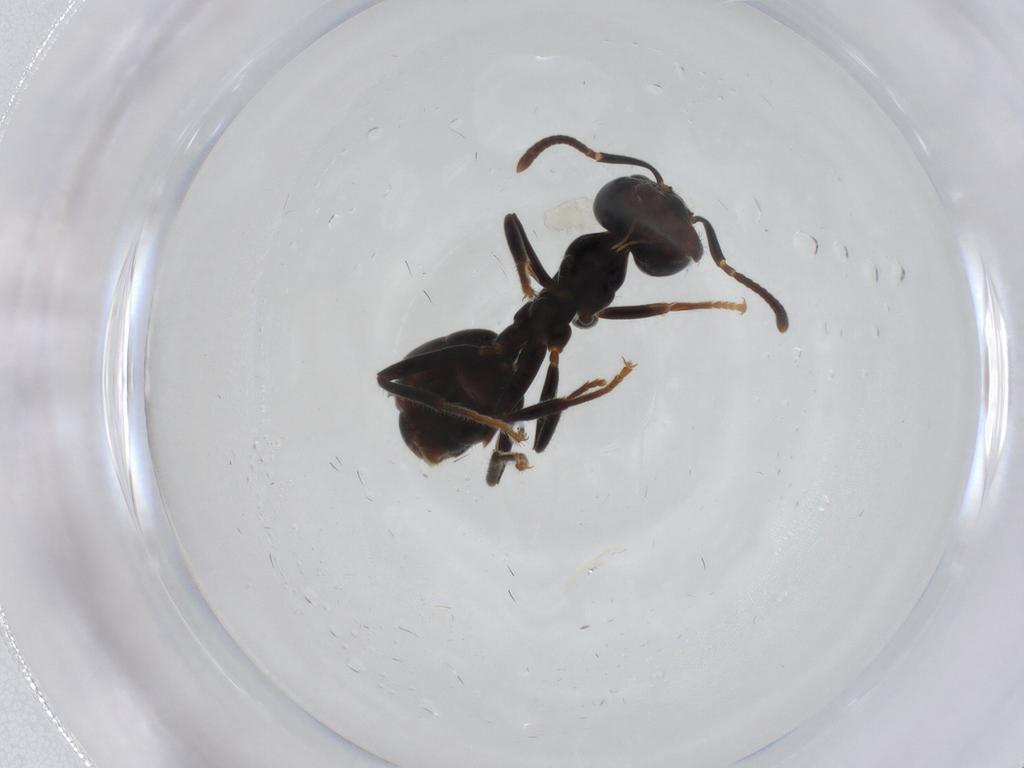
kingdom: Animalia
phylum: Arthropoda
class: Insecta
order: Hymenoptera
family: Formicidae
